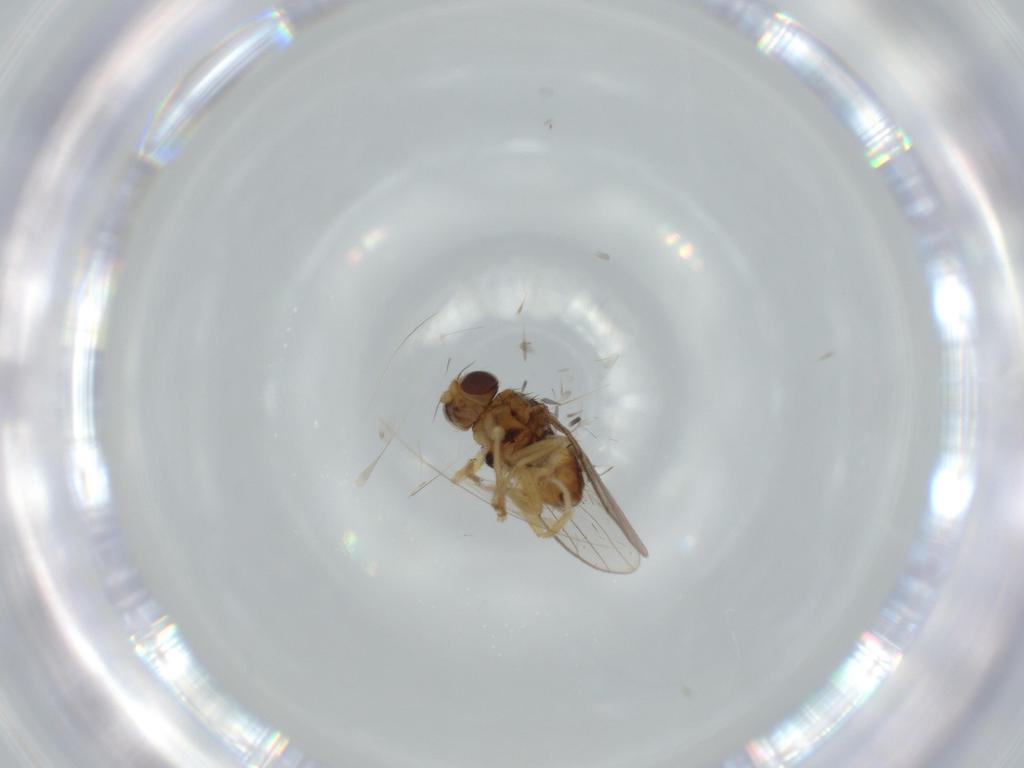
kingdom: Animalia
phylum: Arthropoda
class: Insecta
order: Diptera
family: Chloropidae
